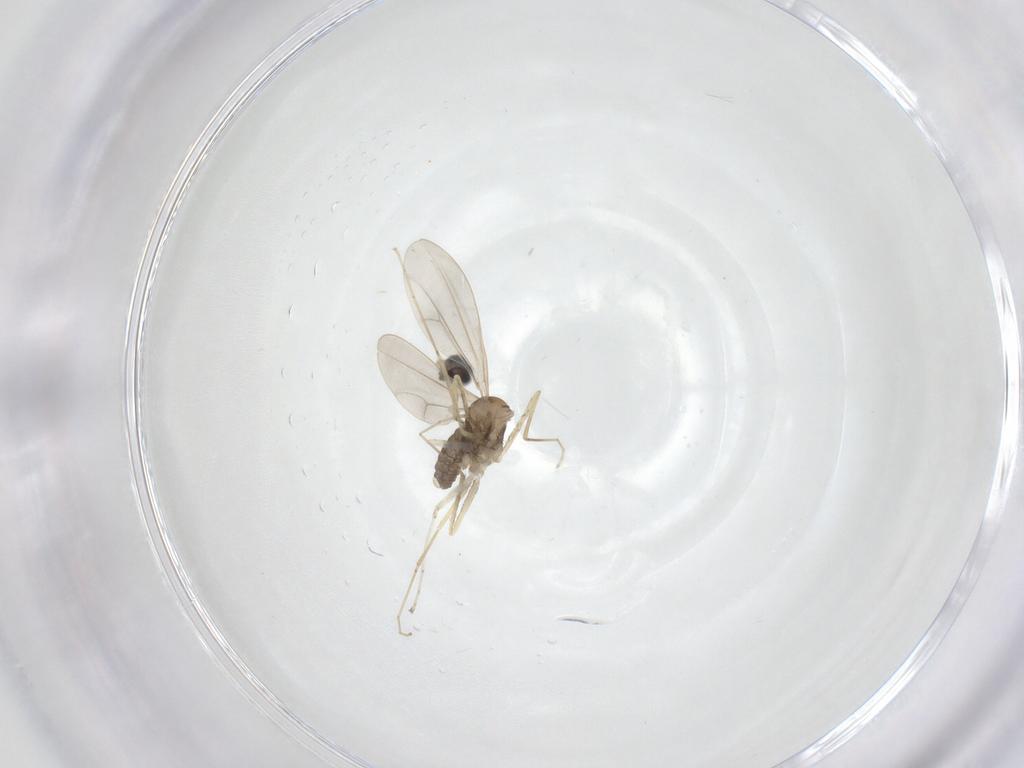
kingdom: Animalia
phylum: Arthropoda
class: Insecta
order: Diptera
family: Cecidomyiidae
